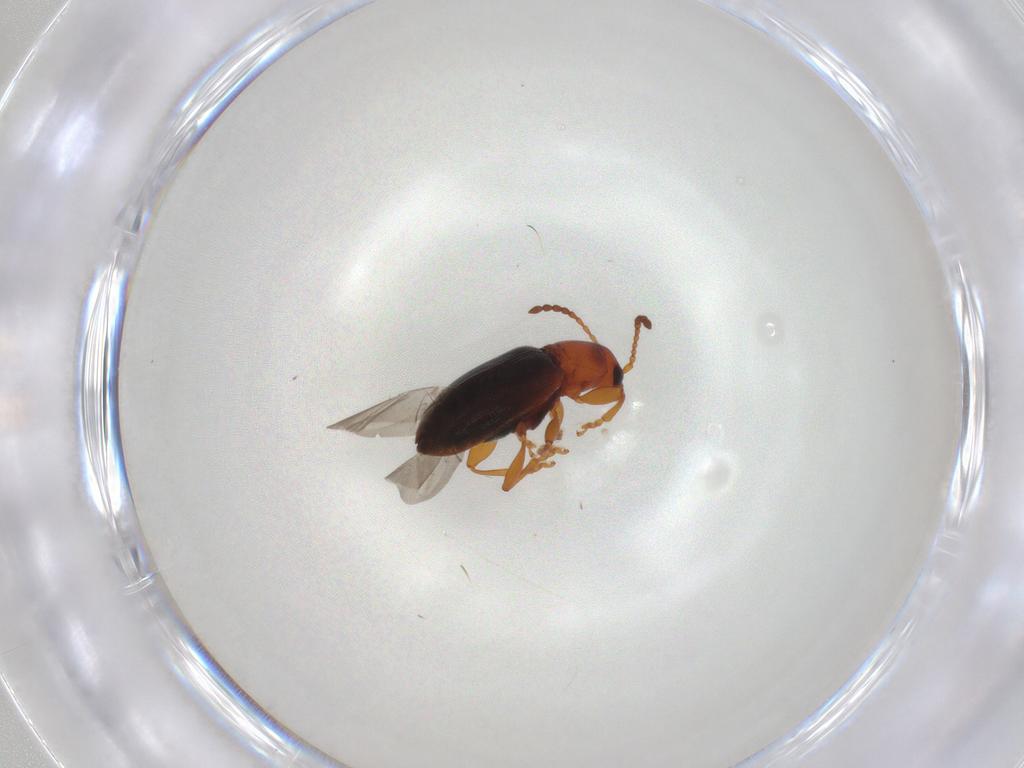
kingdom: Animalia
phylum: Arthropoda
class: Insecta
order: Coleoptera
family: Chrysomelidae
